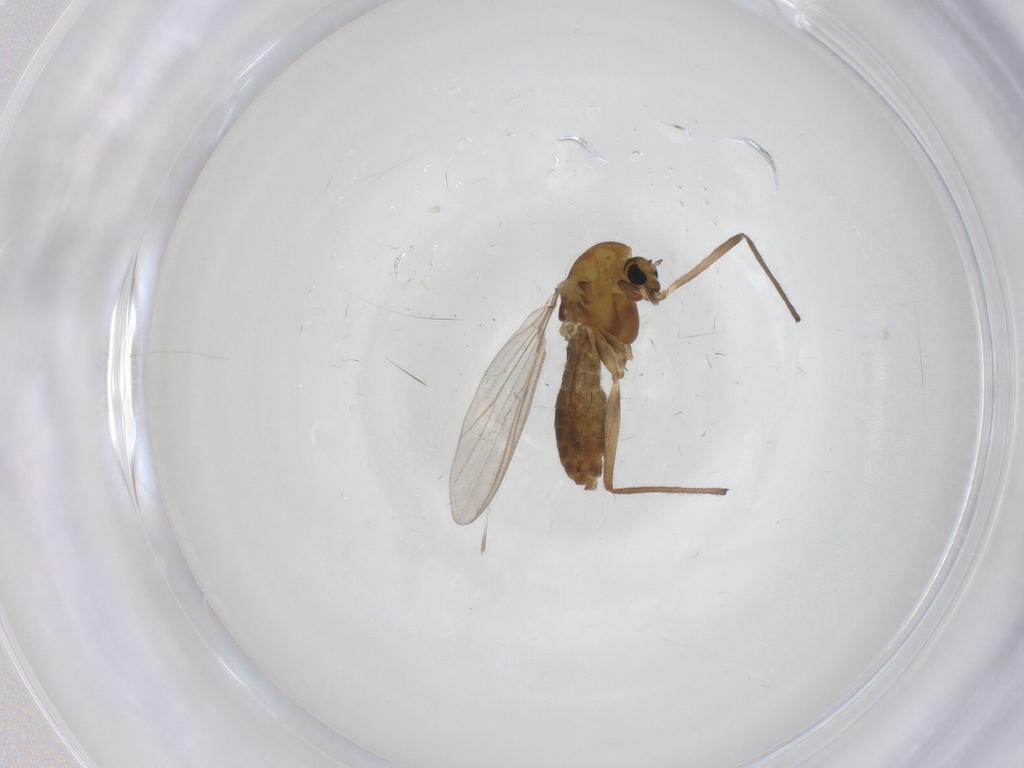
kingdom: Animalia
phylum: Arthropoda
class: Insecta
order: Diptera
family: Chironomidae
